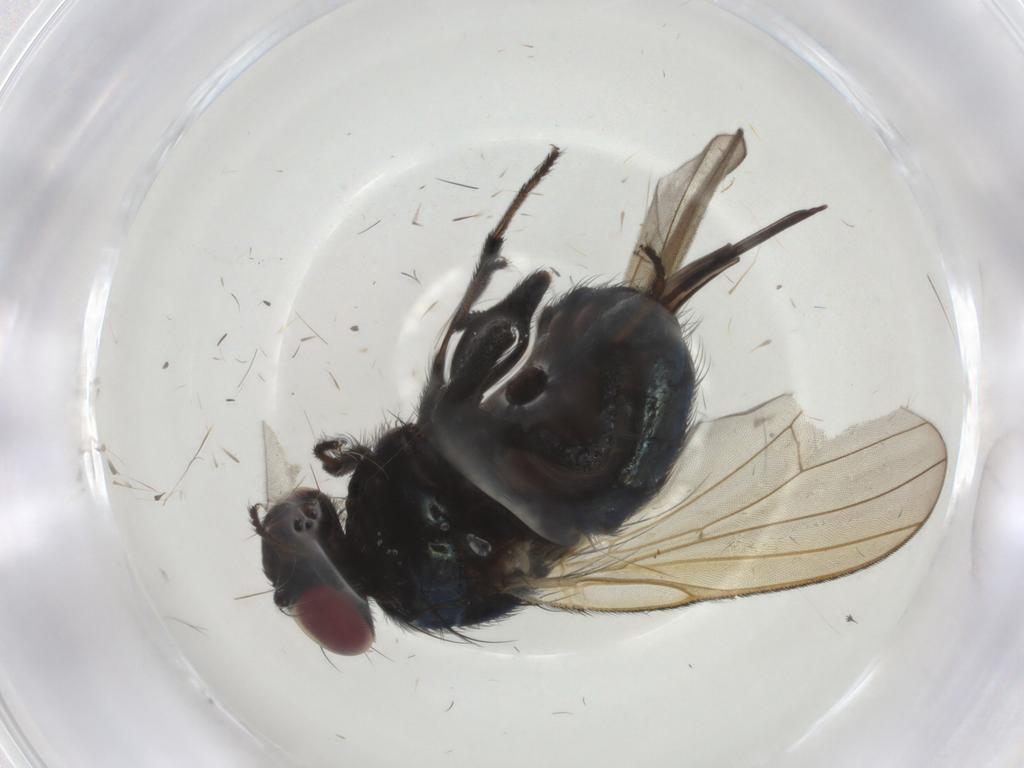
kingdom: Animalia
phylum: Arthropoda
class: Insecta
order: Diptera
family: Lonchaeidae
